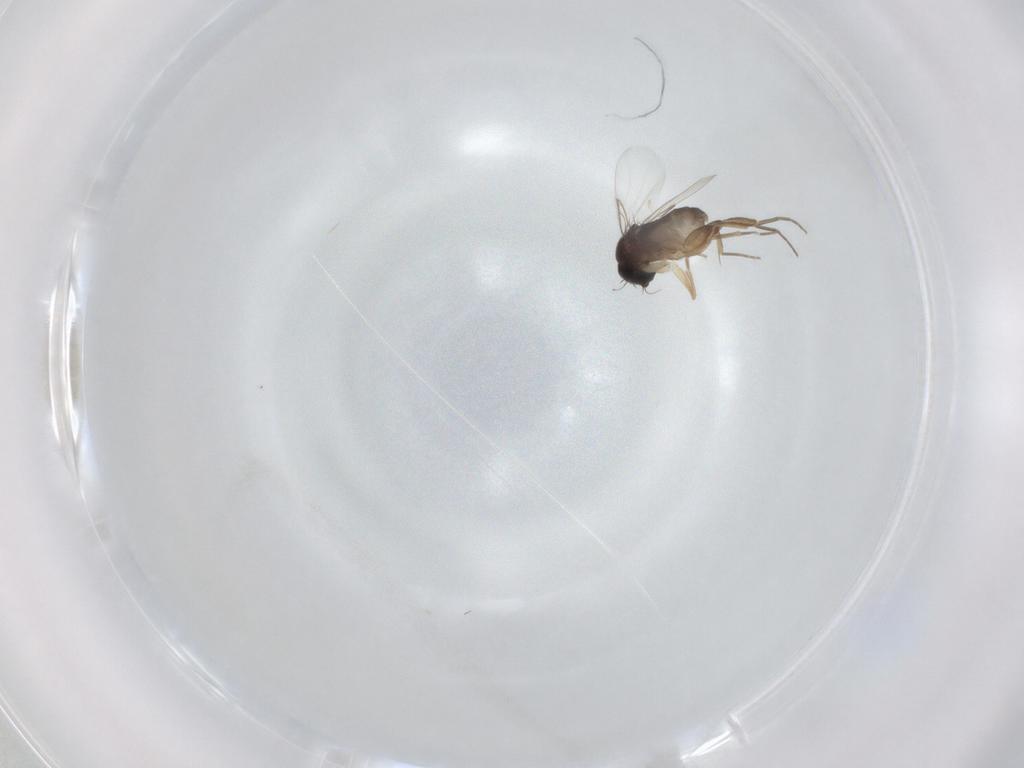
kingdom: Animalia
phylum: Arthropoda
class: Insecta
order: Diptera
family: Phoridae
